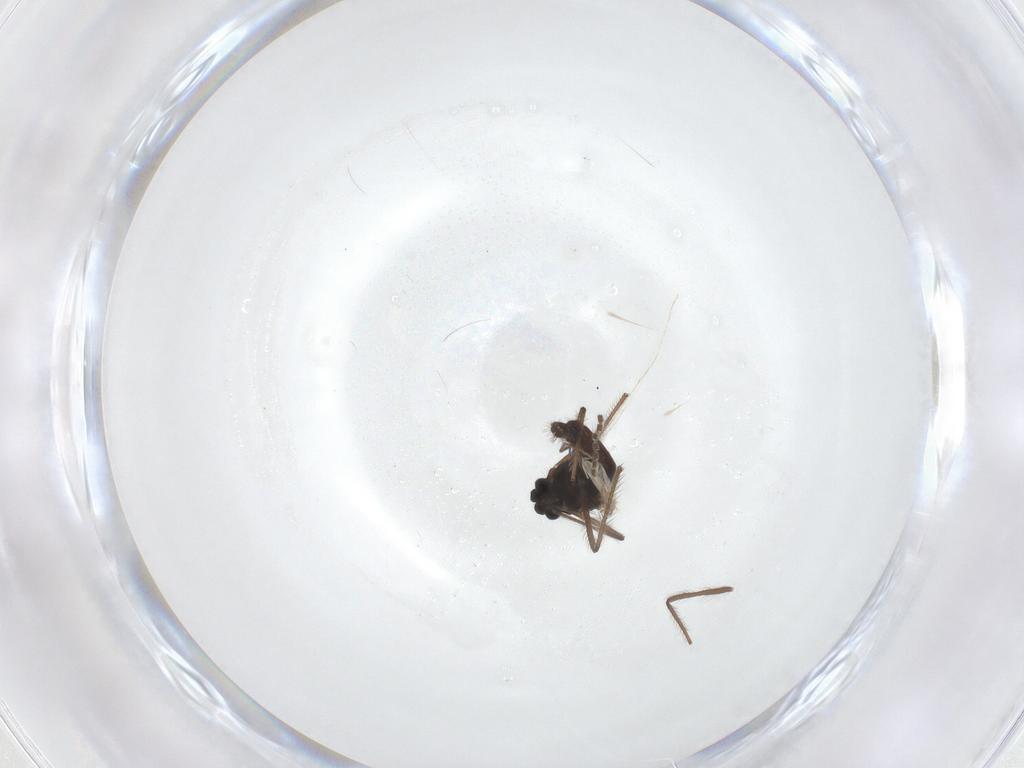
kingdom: Animalia
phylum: Arthropoda
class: Insecta
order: Diptera
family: Chironomidae
